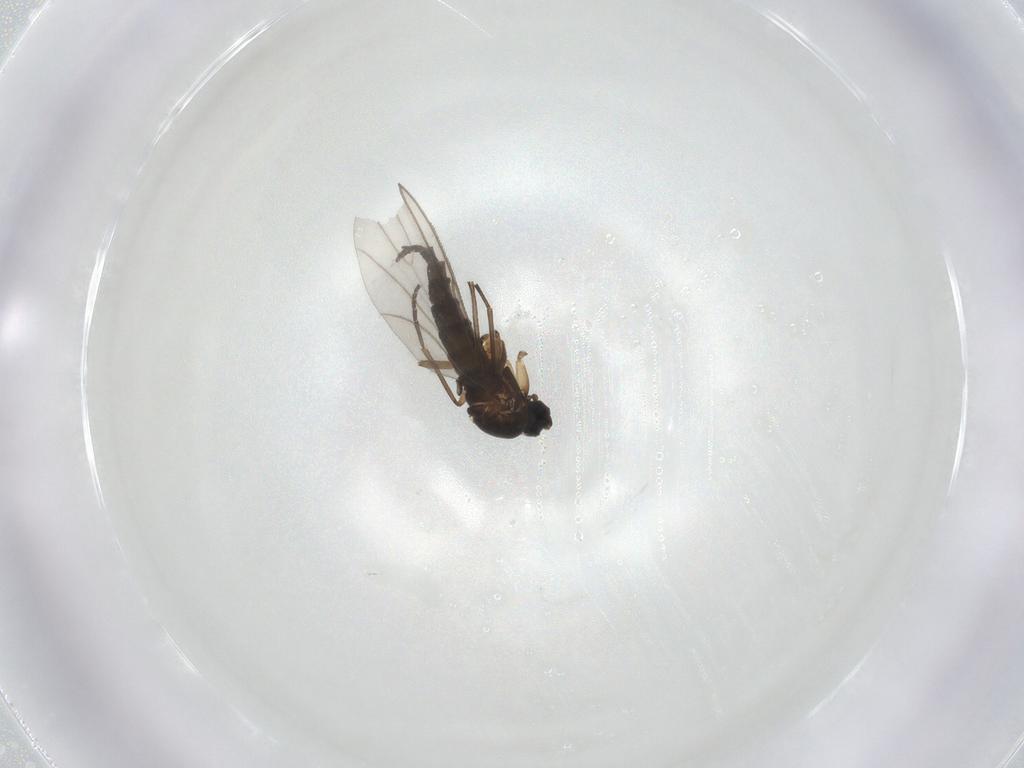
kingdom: Animalia
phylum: Arthropoda
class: Insecta
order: Diptera
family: Sciaridae
